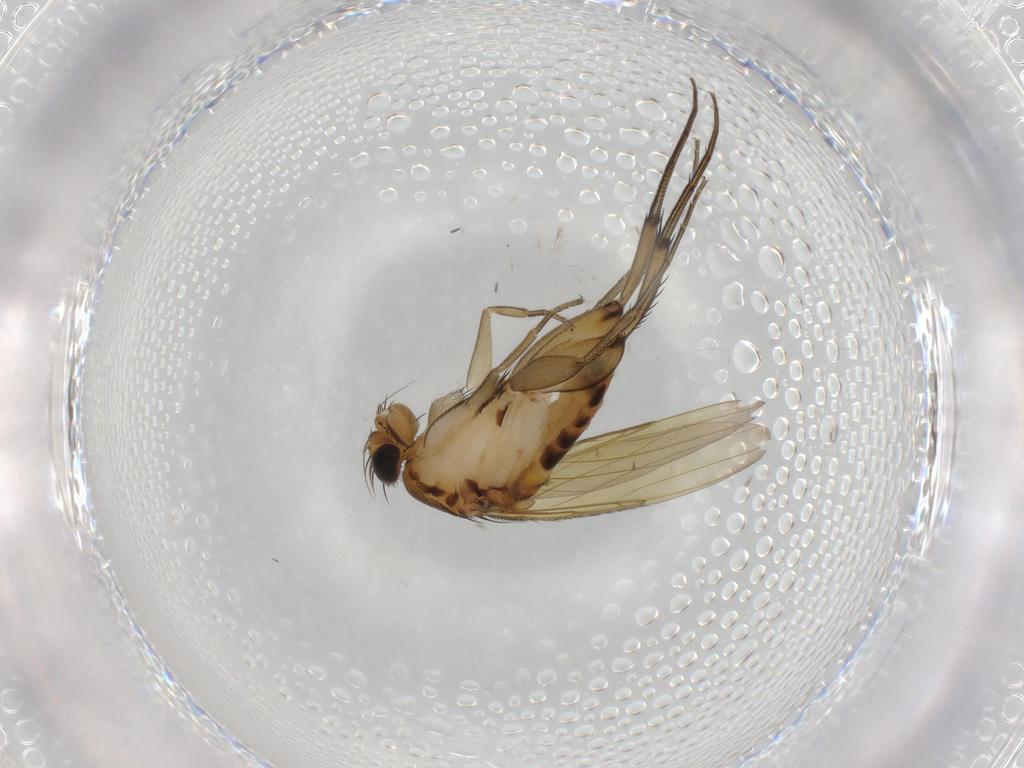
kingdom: Animalia
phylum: Arthropoda
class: Insecta
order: Diptera
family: Phoridae
